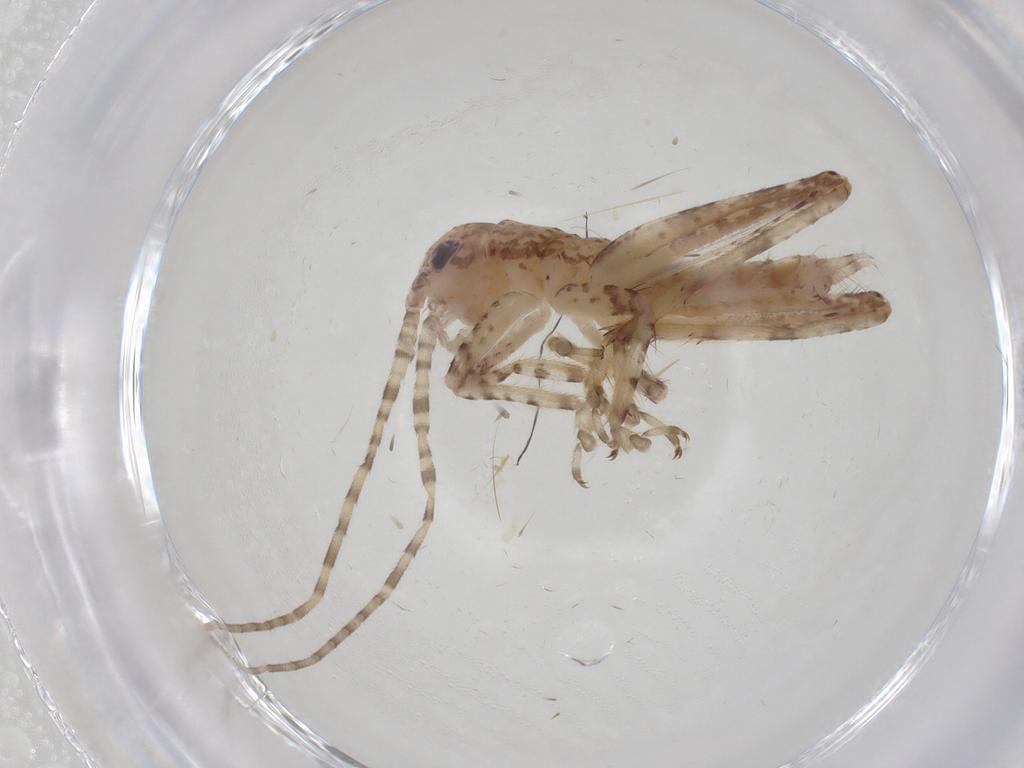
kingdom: Animalia
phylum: Arthropoda
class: Insecta
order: Orthoptera
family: Gryllidae
